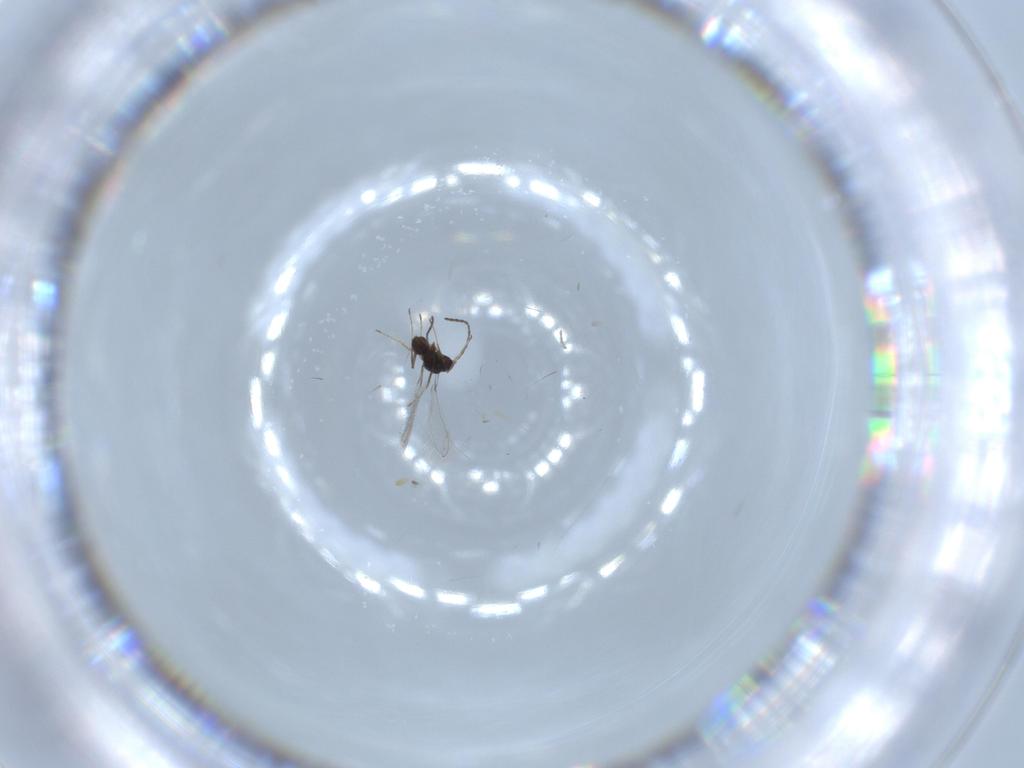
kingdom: Animalia
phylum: Arthropoda
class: Insecta
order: Hymenoptera
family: Mymaridae
